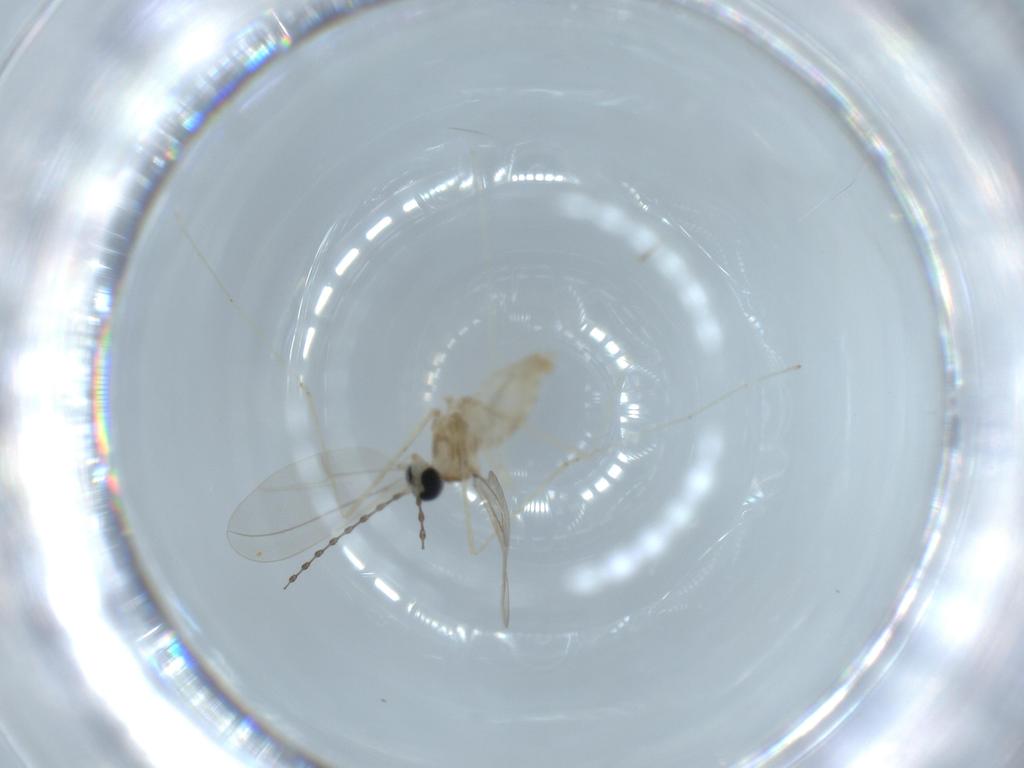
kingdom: Animalia
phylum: Arthropoda
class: Insecta
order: Diptera
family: Cecidomyiidae
